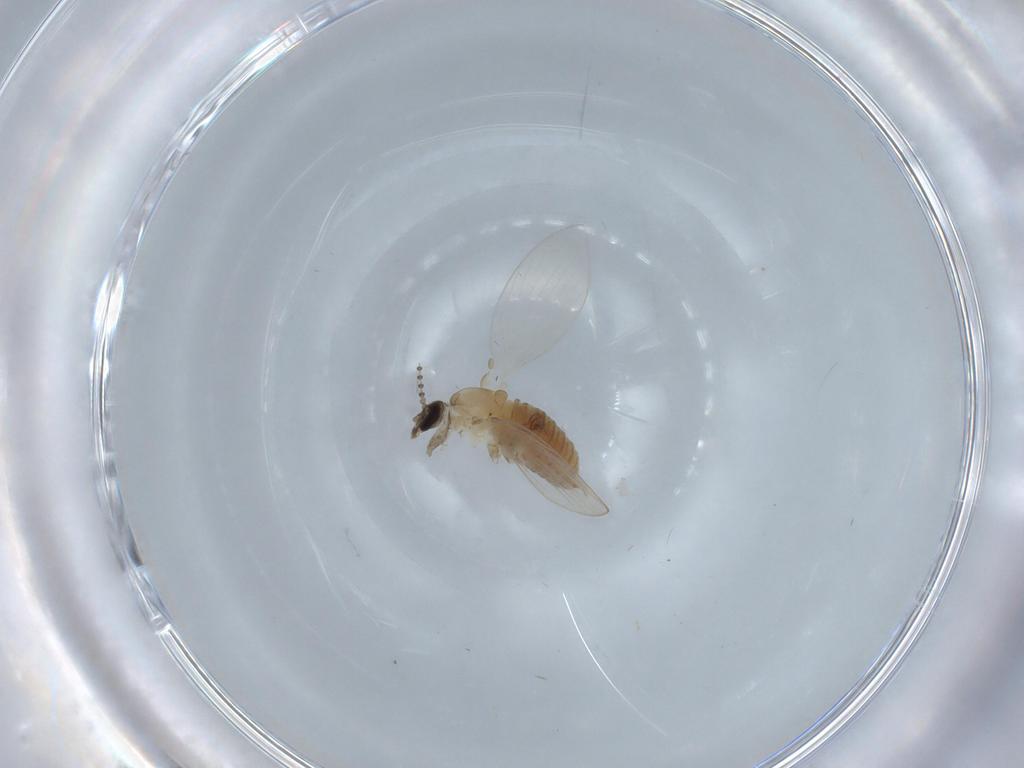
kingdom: Animalia
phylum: Arthropoda
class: Insecta
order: Diptera
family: Psychodidae
